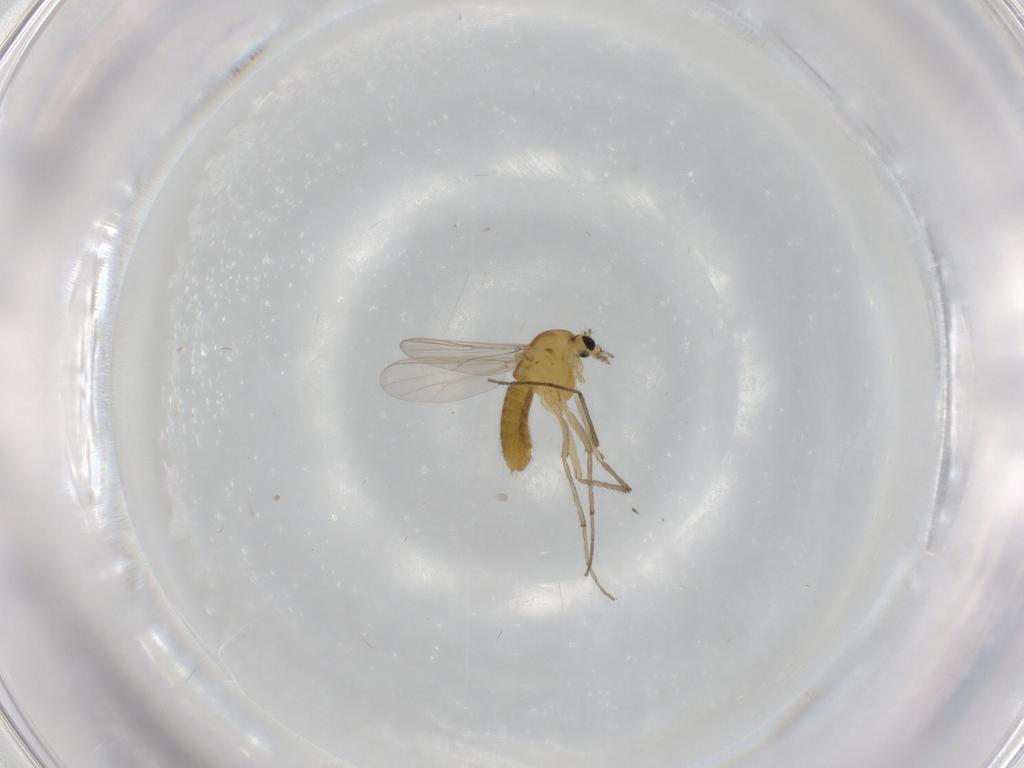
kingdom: Animalia
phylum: Arthropoda
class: Insecta
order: Diptera
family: Chironomidae
